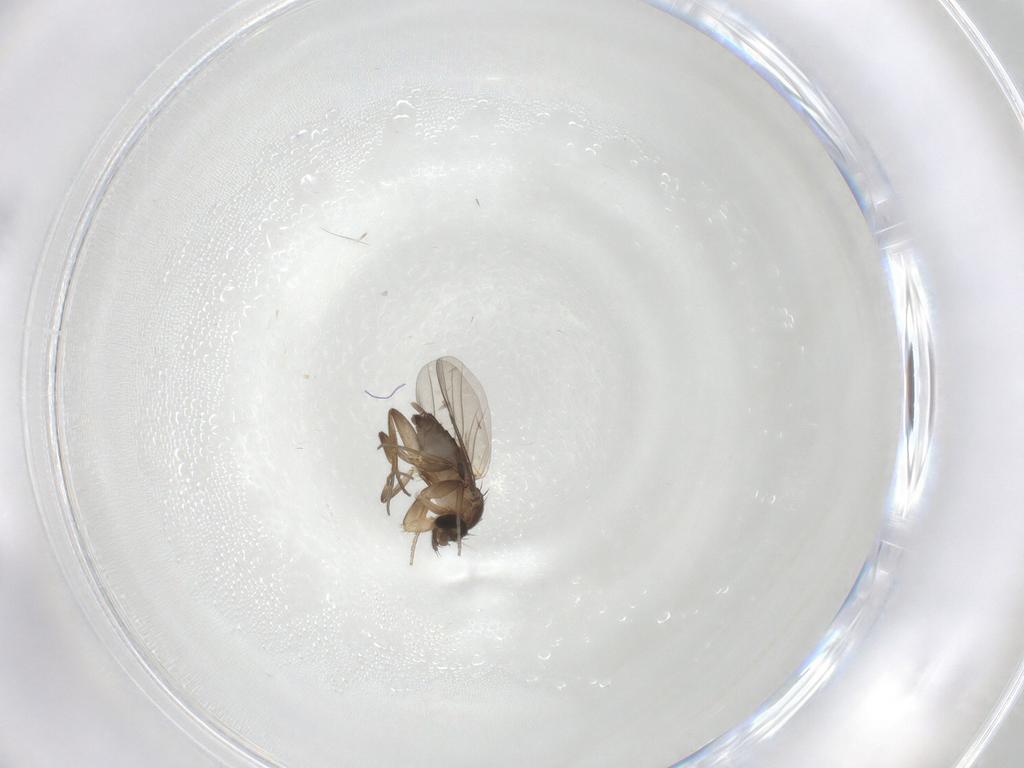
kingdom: Animalia
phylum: Arthropoda
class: Insecta
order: Diptera
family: Phoridae
